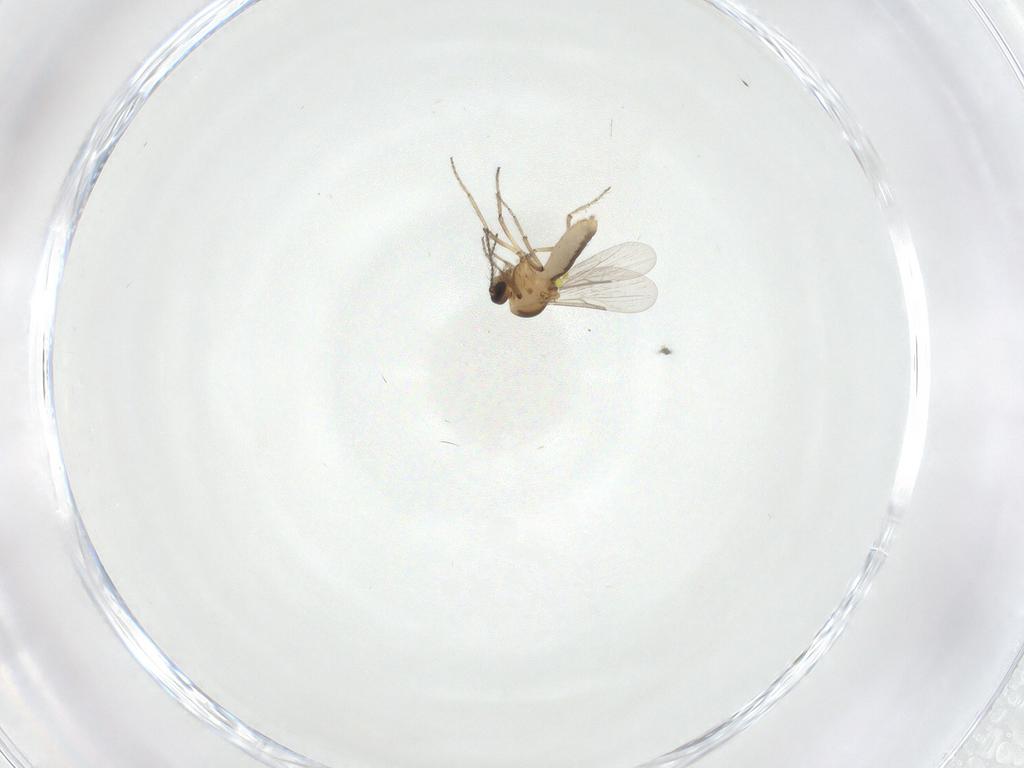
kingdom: Animalia
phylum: Arthropoda
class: Insecta
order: Diptera
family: Ceratopogonidae
